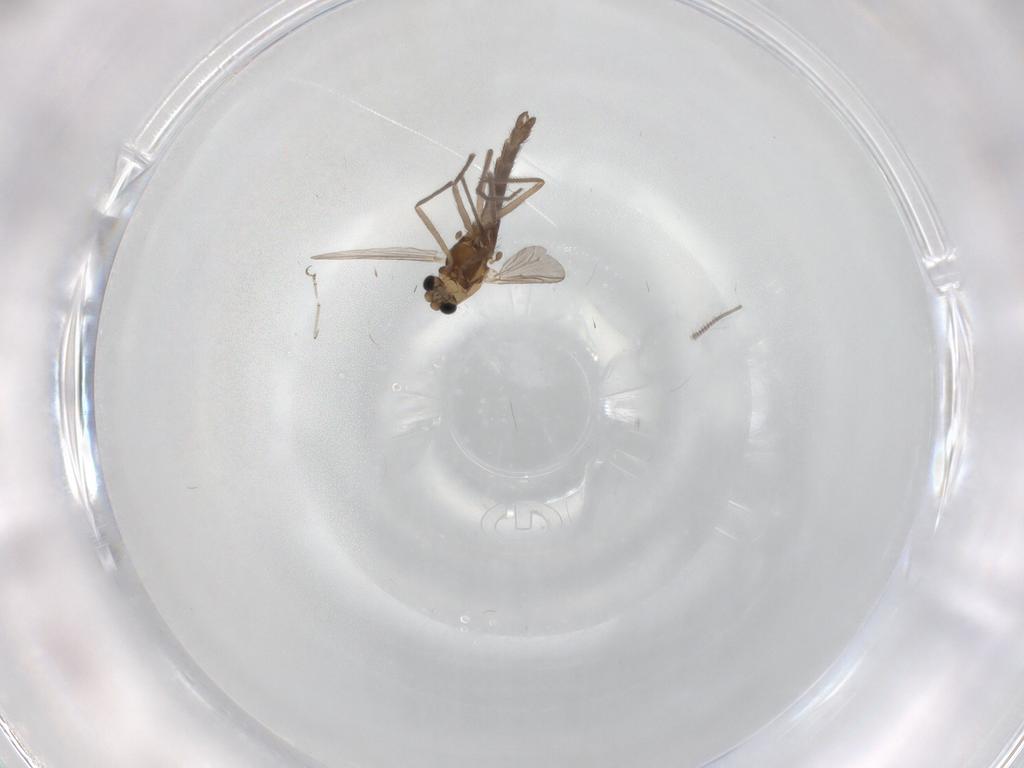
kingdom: Animalia
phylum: Arthropoda
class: Insecta
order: Diptera
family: Chironomidae
